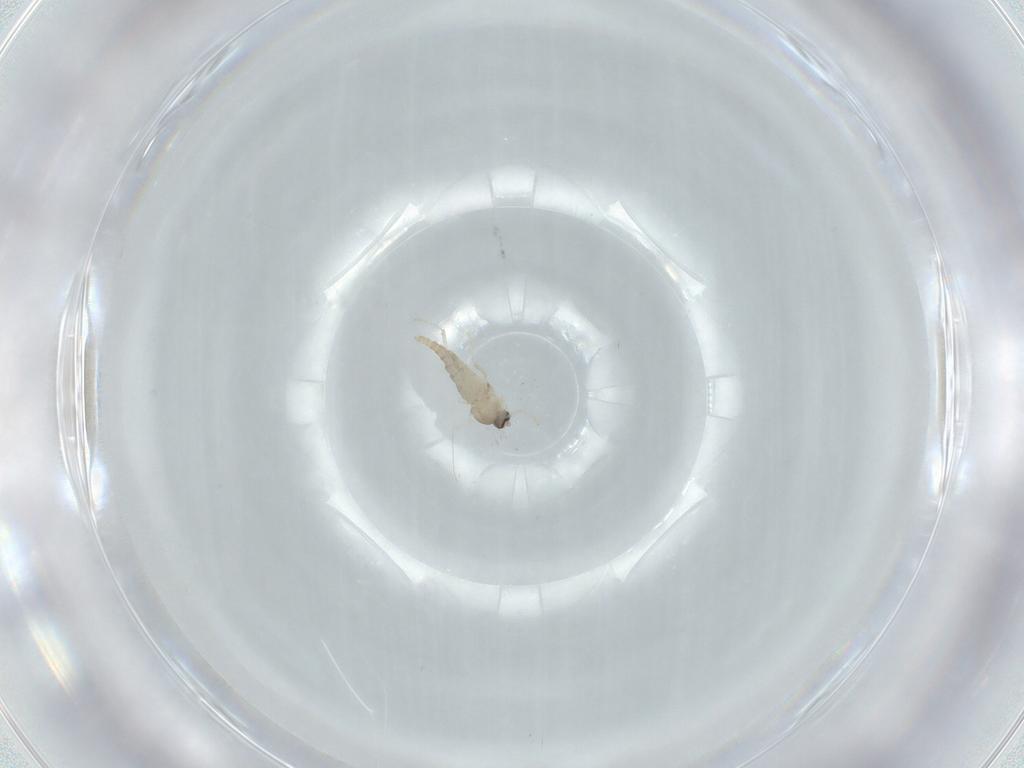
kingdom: Animalia
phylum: Arthropoda
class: Insecta
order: Diptera
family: Cecidomyiidae
